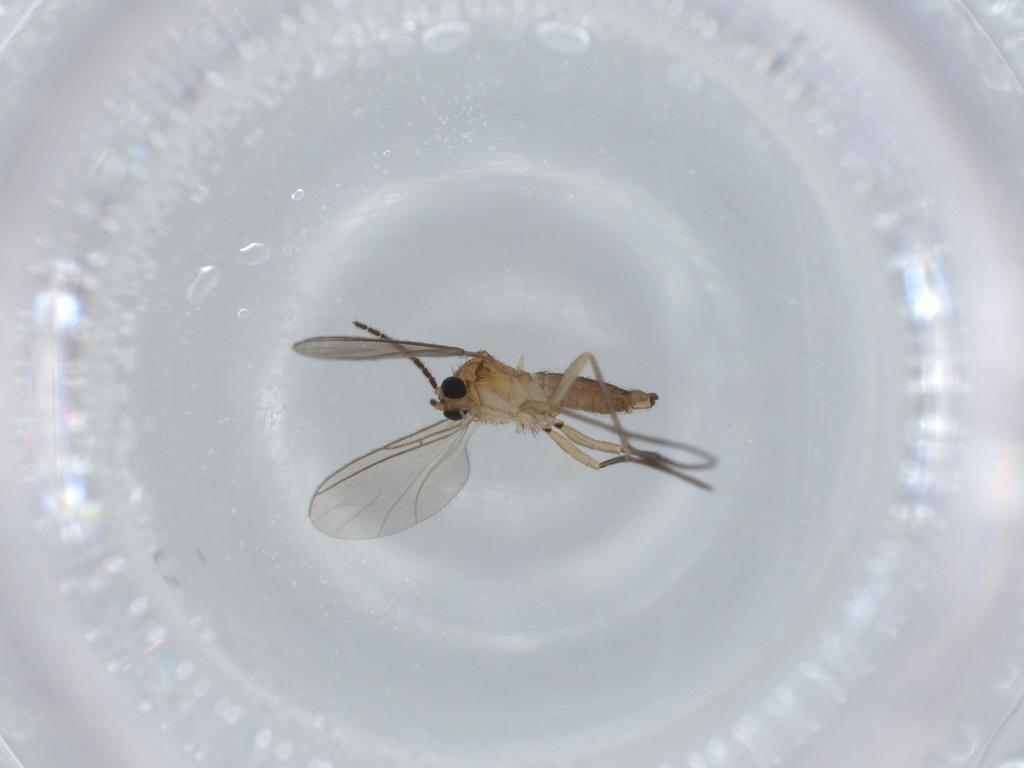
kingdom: Animalia
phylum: Arthropoda
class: Insecta
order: Diptera
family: Sciaridae
